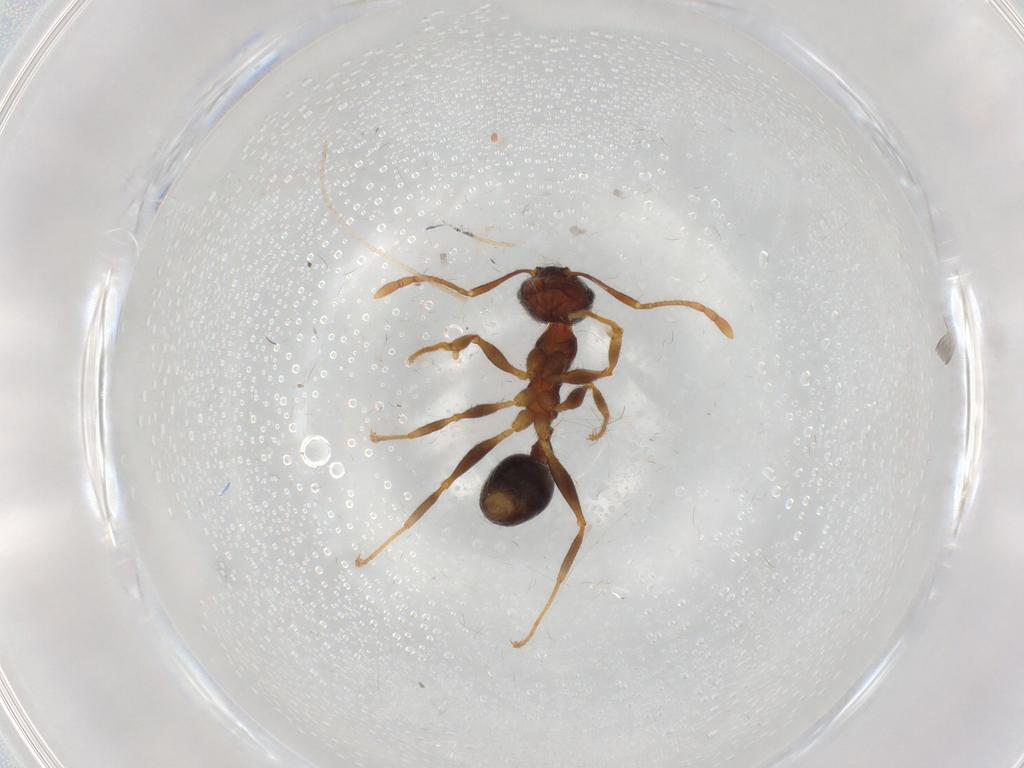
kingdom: Animalia
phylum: Arthropoda
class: Insecta
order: Hymenoptera
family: Formicidae
